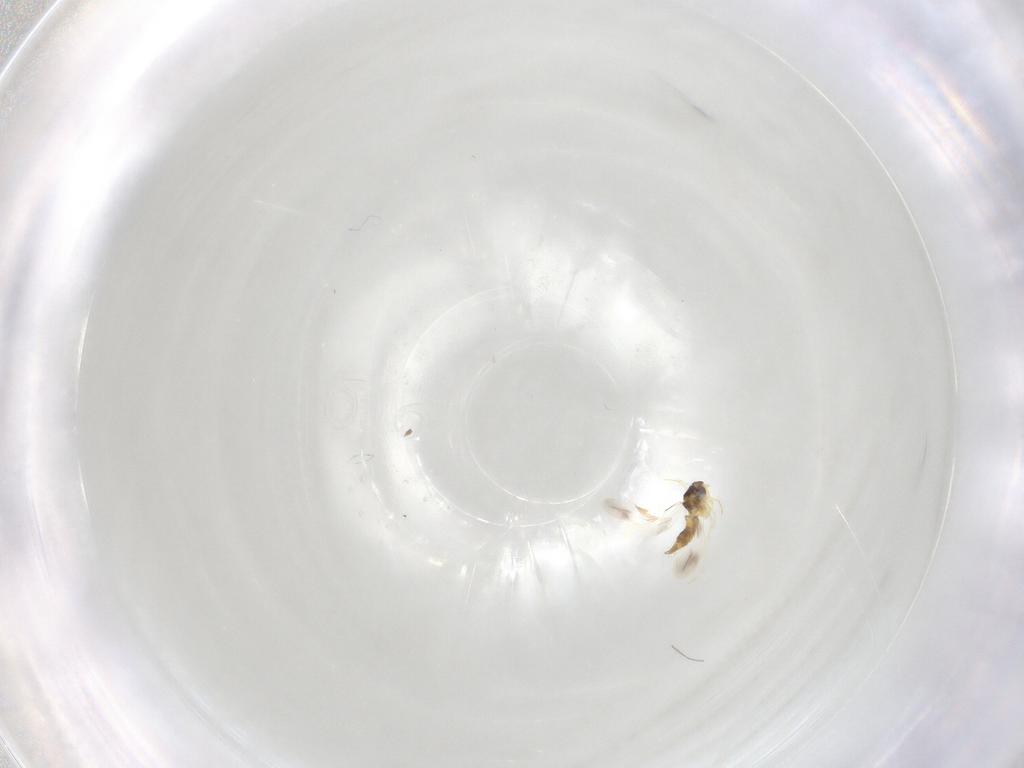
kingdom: Animalia
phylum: Arthropoda
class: Insecta
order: Hemiptera
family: Aleyrodidae
